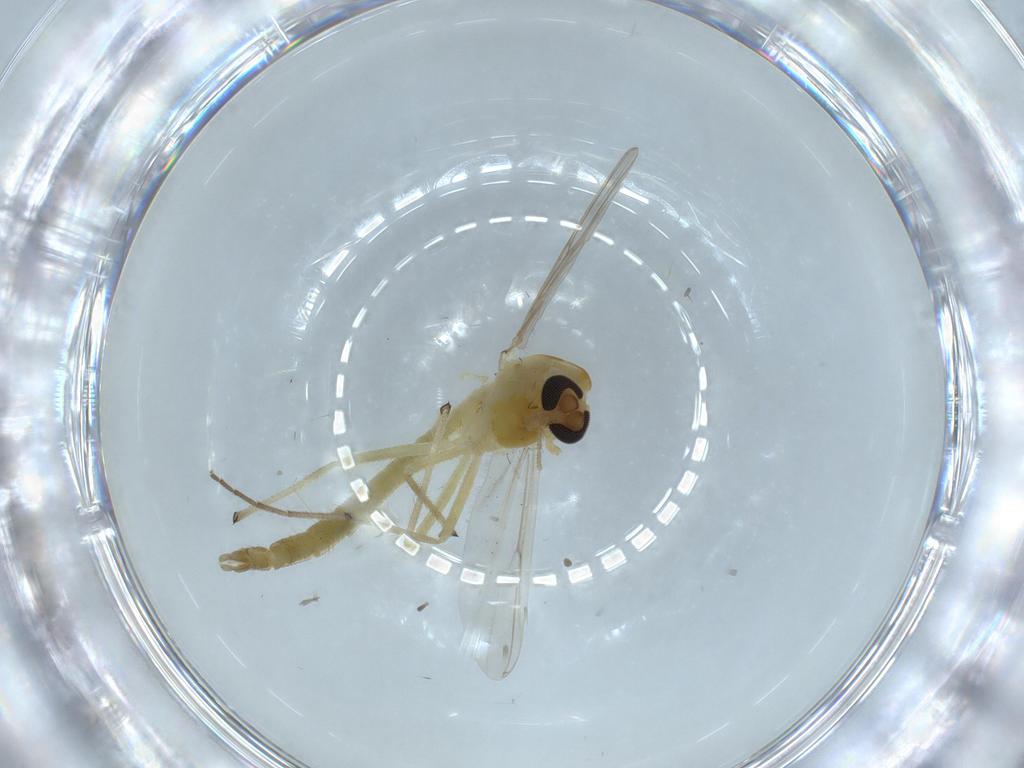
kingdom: Animalia
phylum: Arthropoda
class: Insecta
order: Diptera
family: Chironomidae
